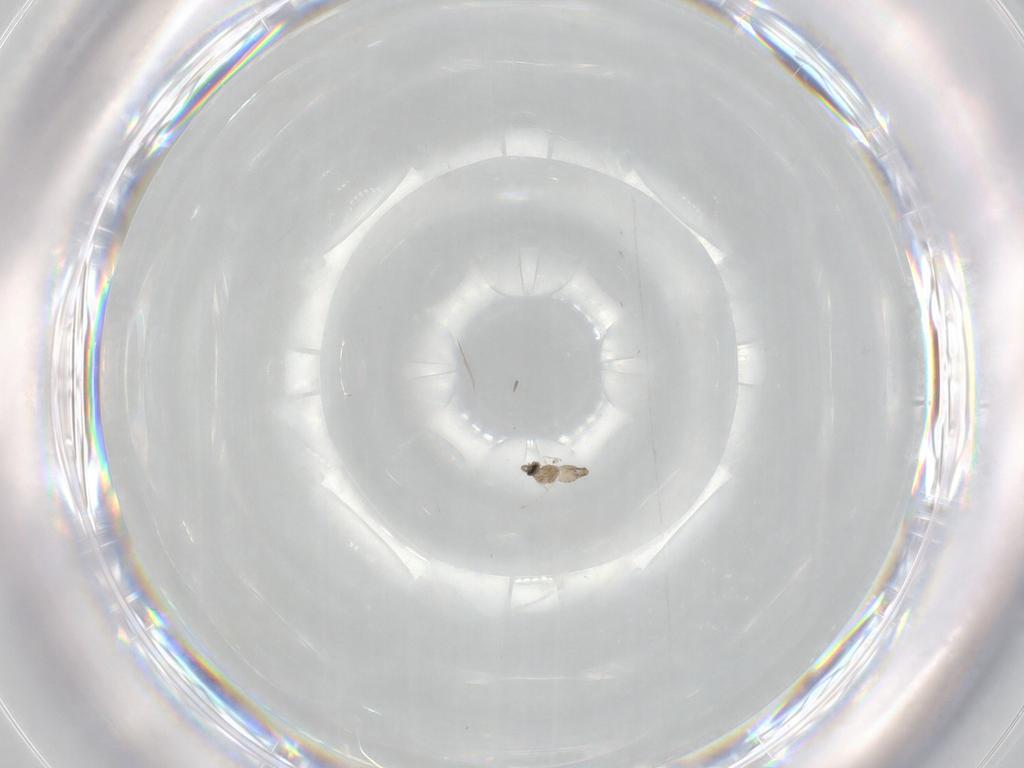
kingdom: Animalia
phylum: Arthropoda
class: Insecta
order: Diptera
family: Cecidomyiidae
